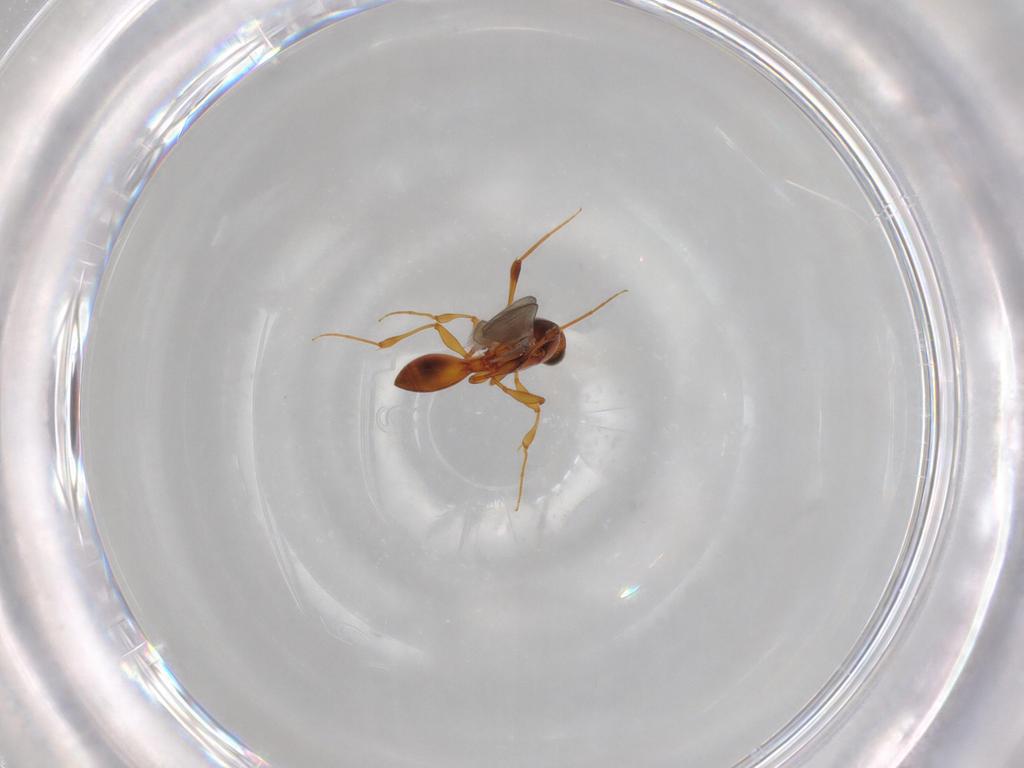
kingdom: Animalia
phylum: Arthropoda
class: Insecta
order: Hymenoptera
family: Platygastridae
